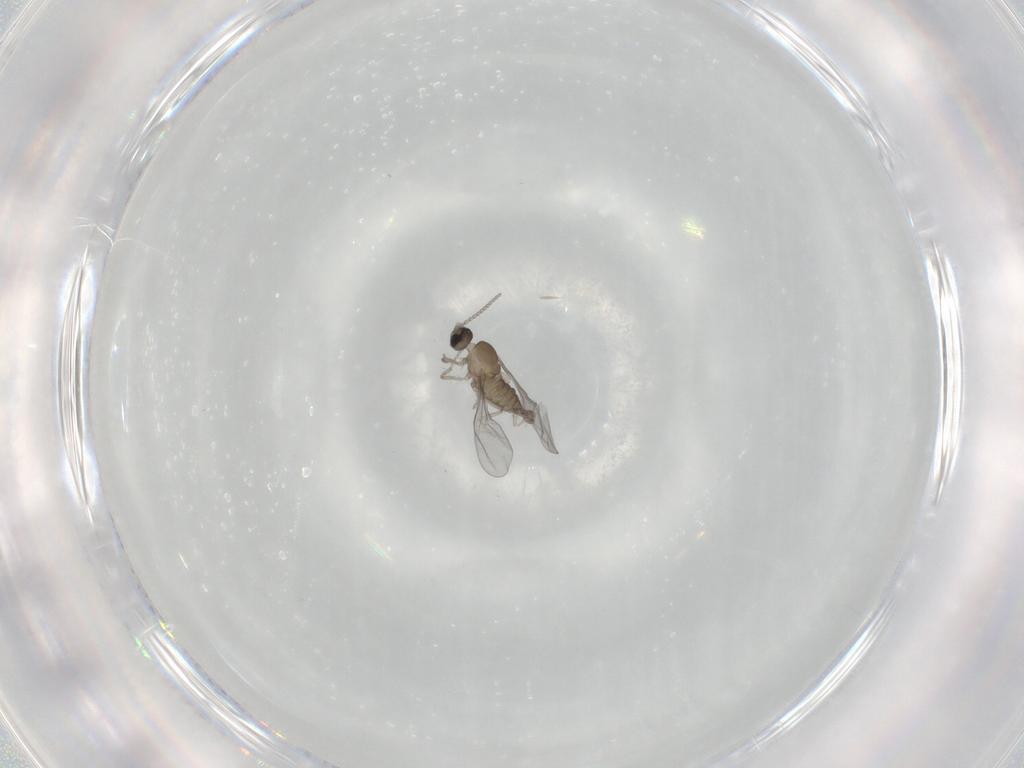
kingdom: Animalia
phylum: Arthropoda
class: Insecta
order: Diptera
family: Cecidomyiidae
